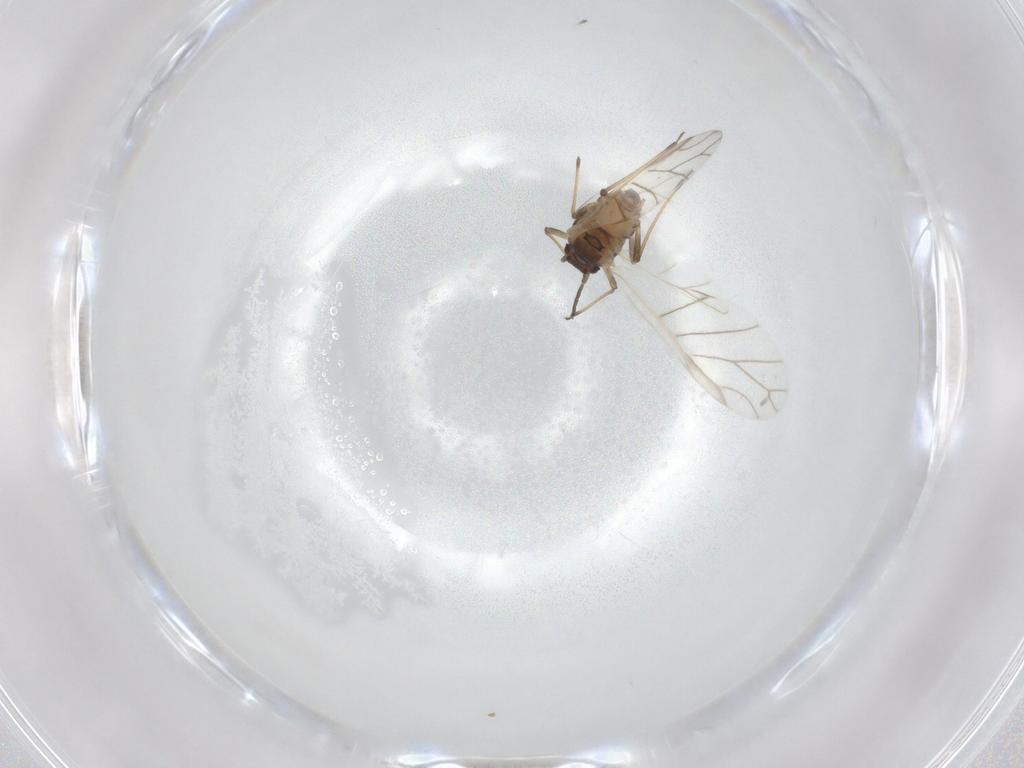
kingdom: Animalia
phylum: Arthropoda
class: Insecta
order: Hemiptera
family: Aphididae
